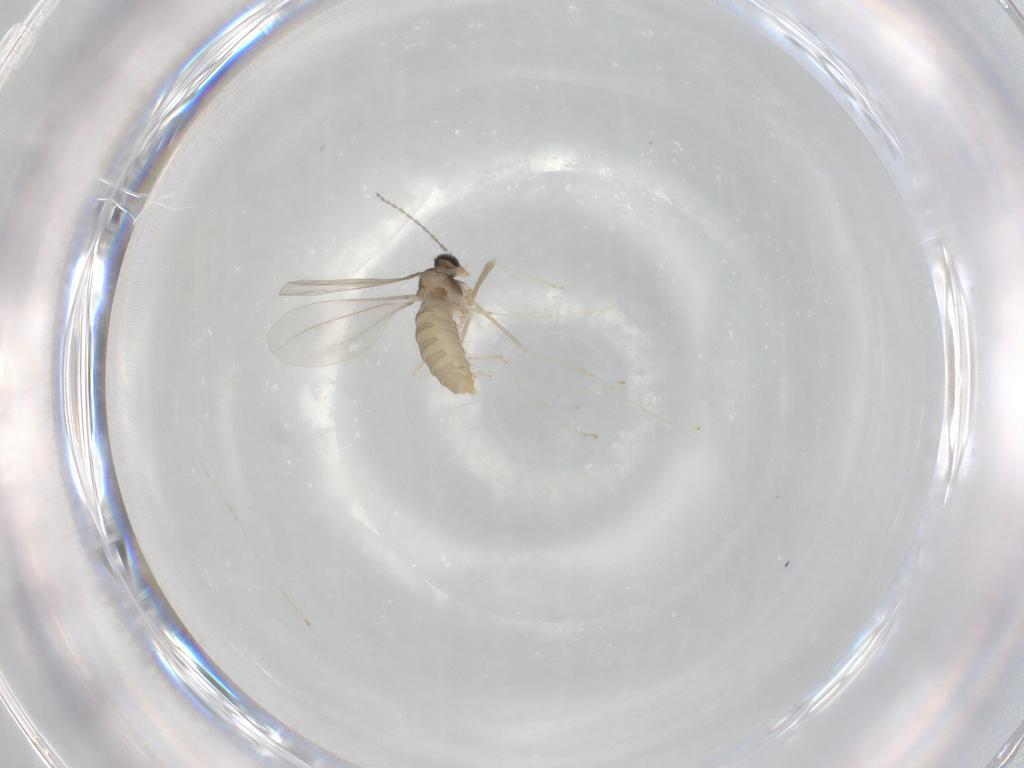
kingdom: Animalia
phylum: Arthropoda
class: Insecta
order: Diptera
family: Cecidomyiidae
